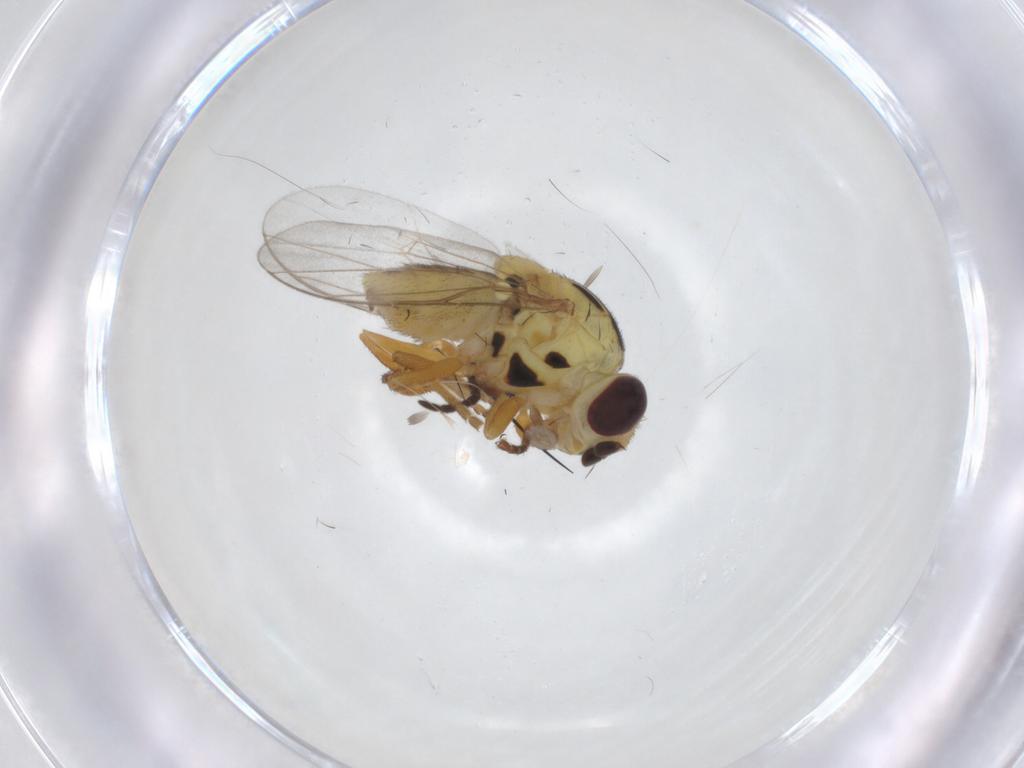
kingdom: Animalia
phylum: Arthropoda
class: Insecta
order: Diptera
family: Chloropidae
